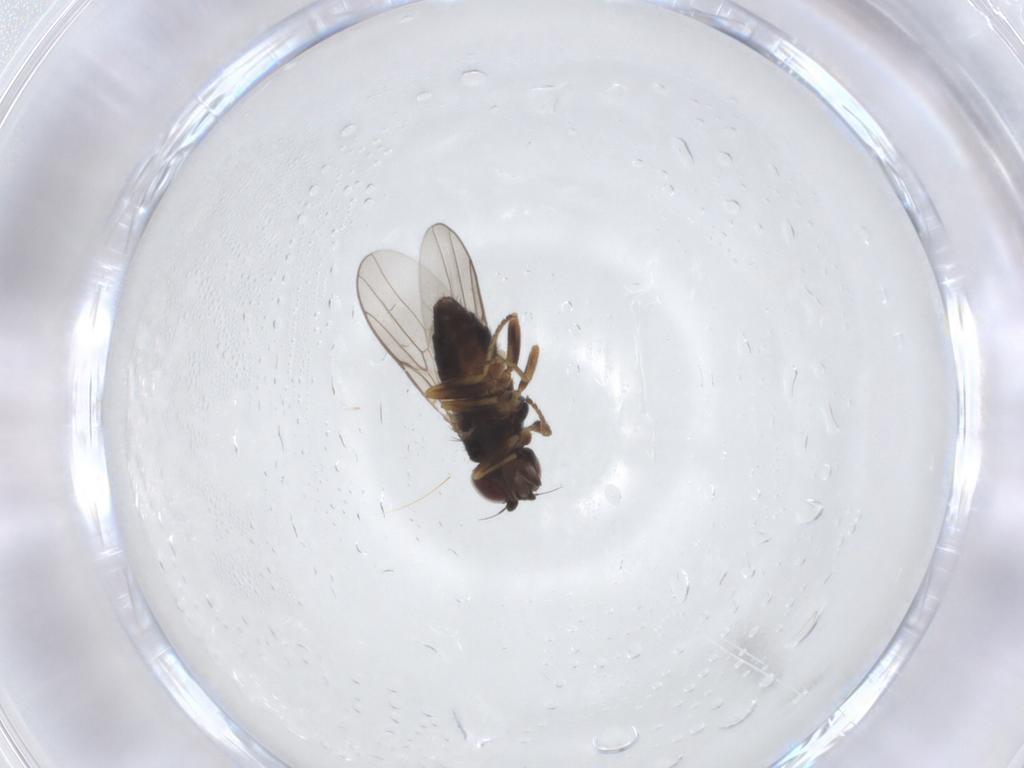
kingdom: Animalia
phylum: Arthropoda
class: Insecta
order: Diptera
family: Chloropidae
